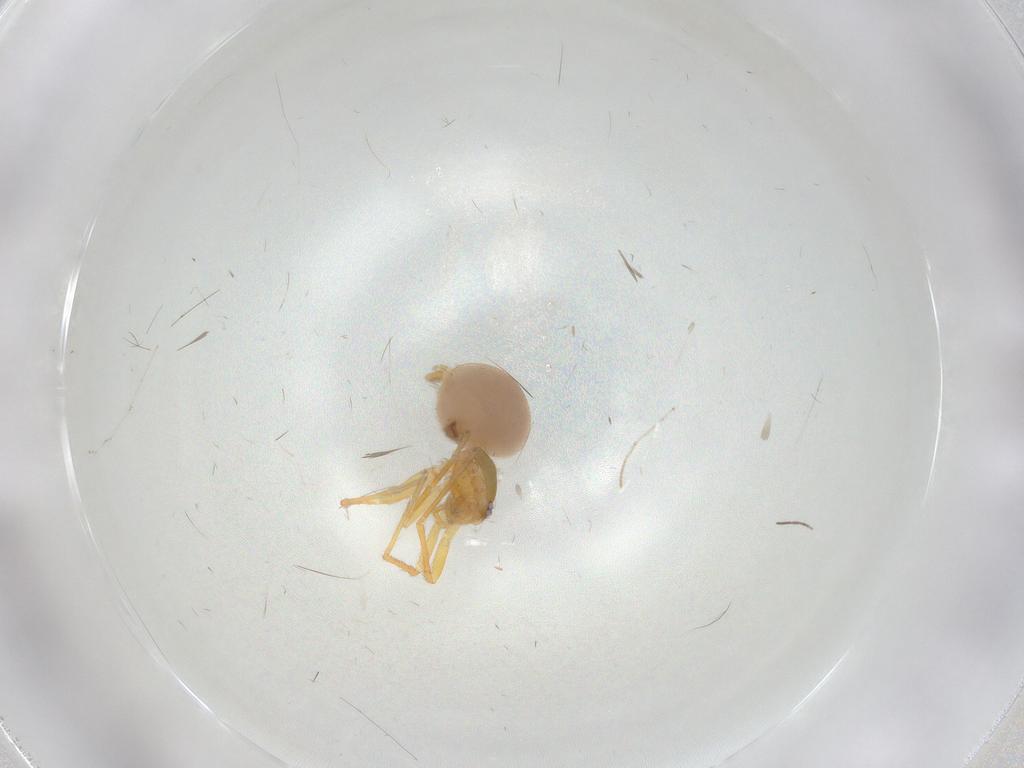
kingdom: Animalia
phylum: Arthropoda
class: Arachnida
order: Araneae
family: Oonopidae
